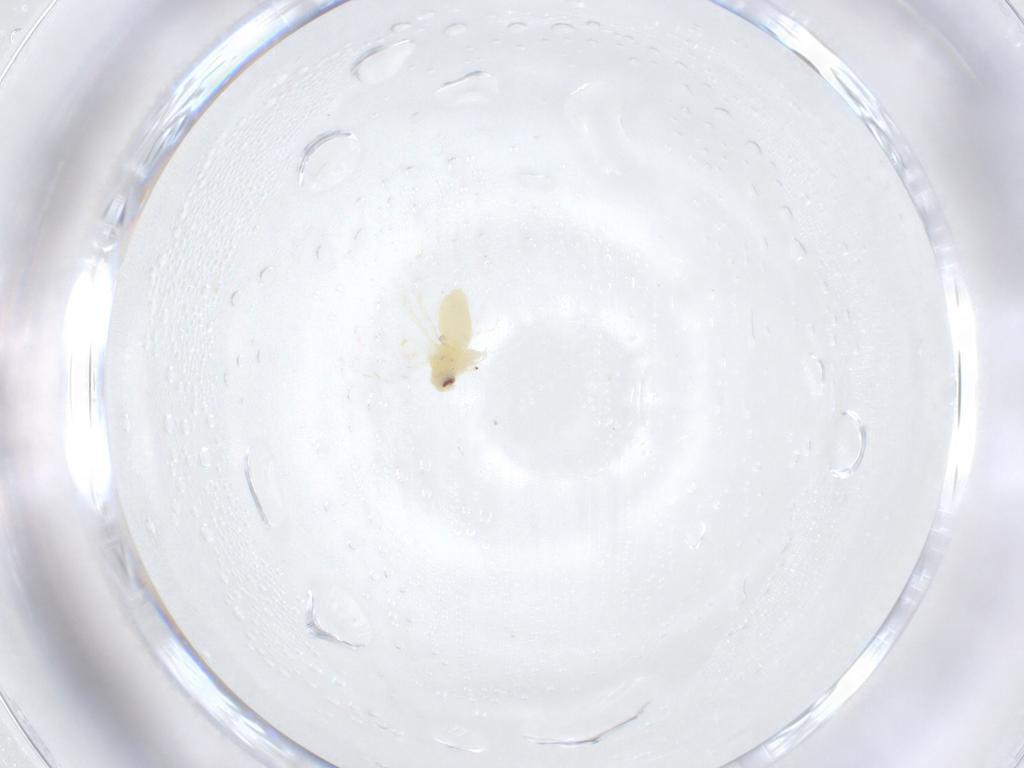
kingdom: Animalia
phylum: Arthropoda
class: Insecta
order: Hemiptera
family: Aleyrodidae
